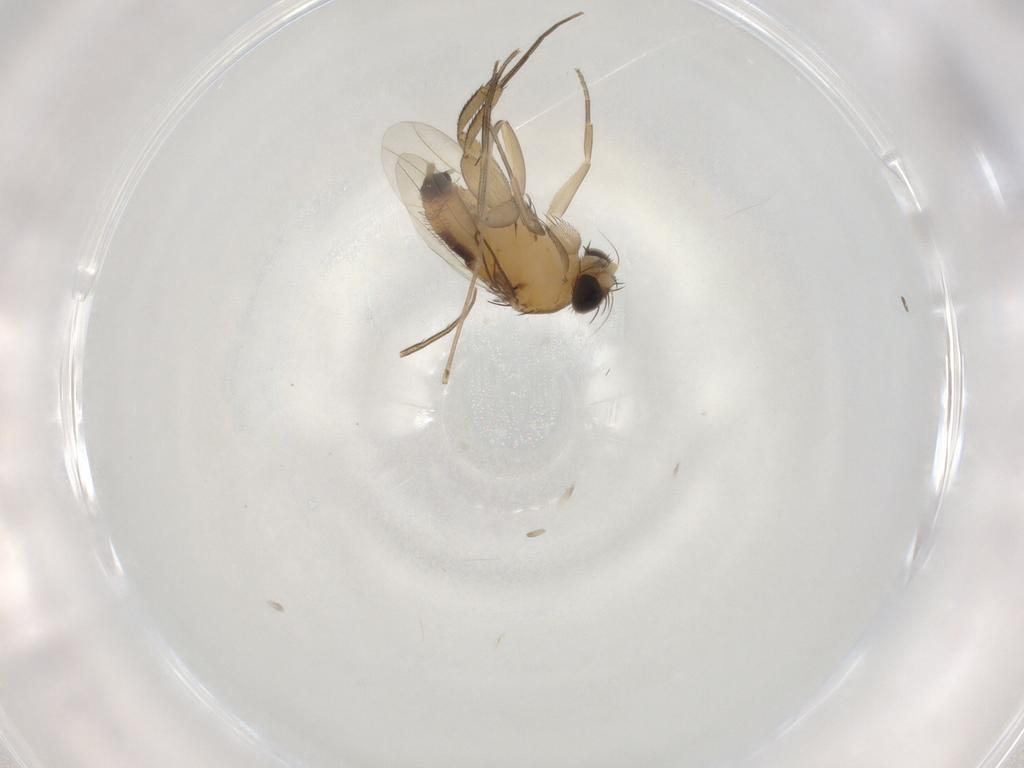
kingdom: Animalia
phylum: Arthropoda
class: Insecta
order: Diptera
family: Phoridae
